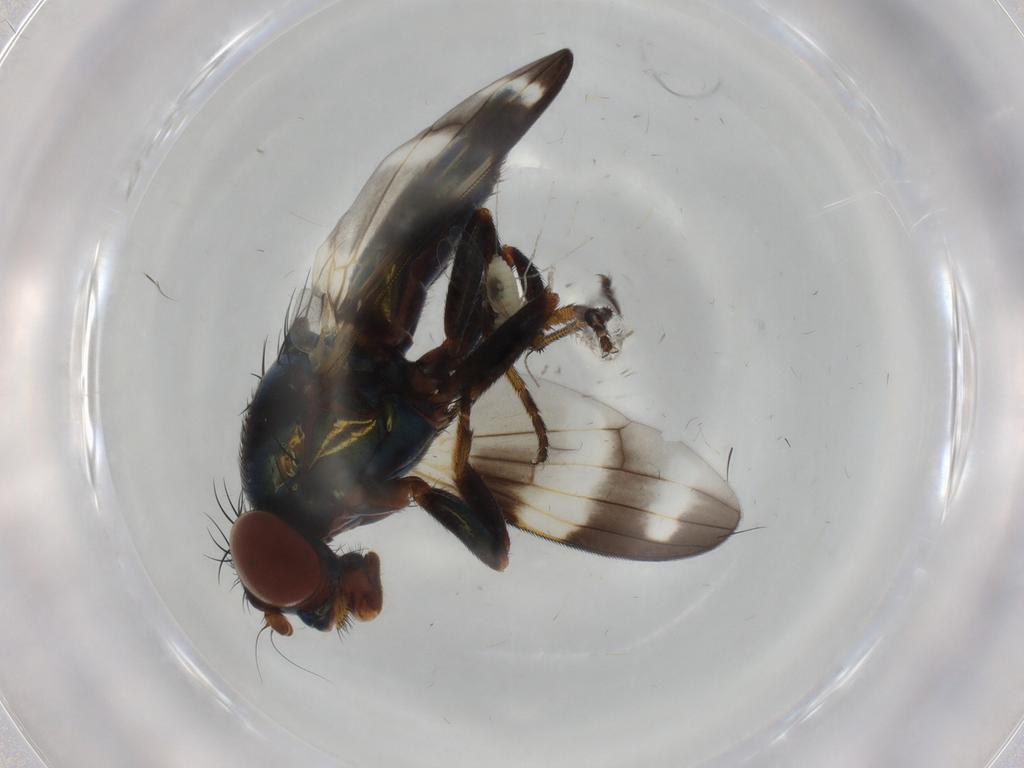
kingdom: Animalia
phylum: Arthropoda
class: Insecta
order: Diptera
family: Ulidiidae
